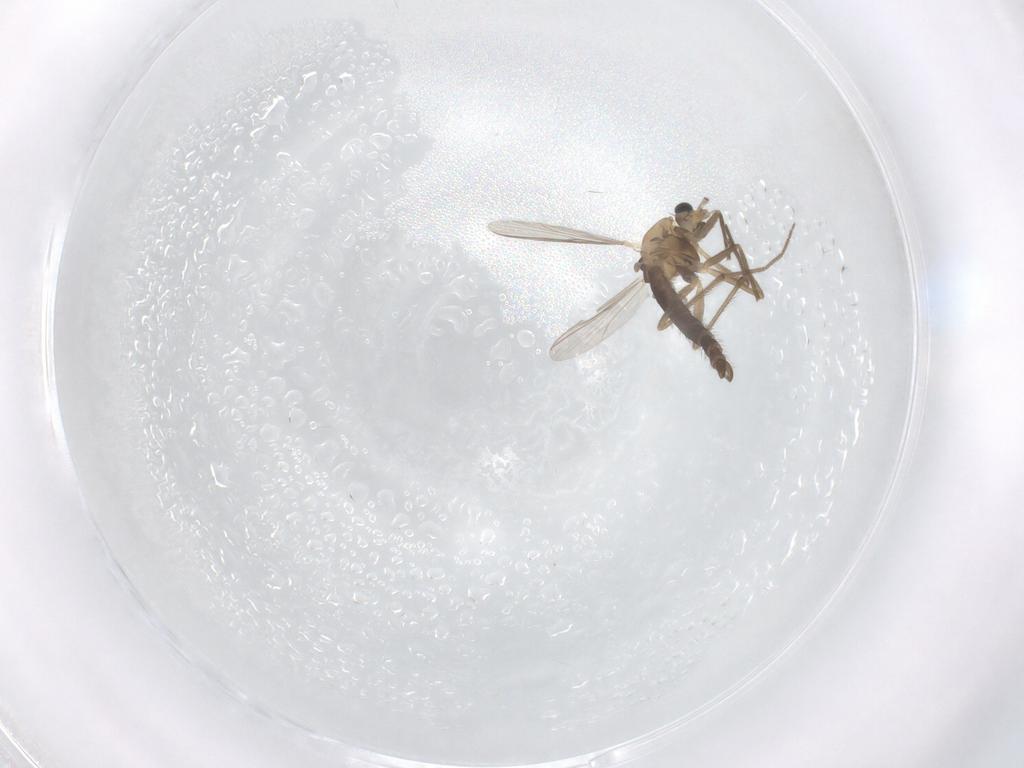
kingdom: Animalia
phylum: Arthropoda
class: Insecta
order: Diptera
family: Chironomidae
